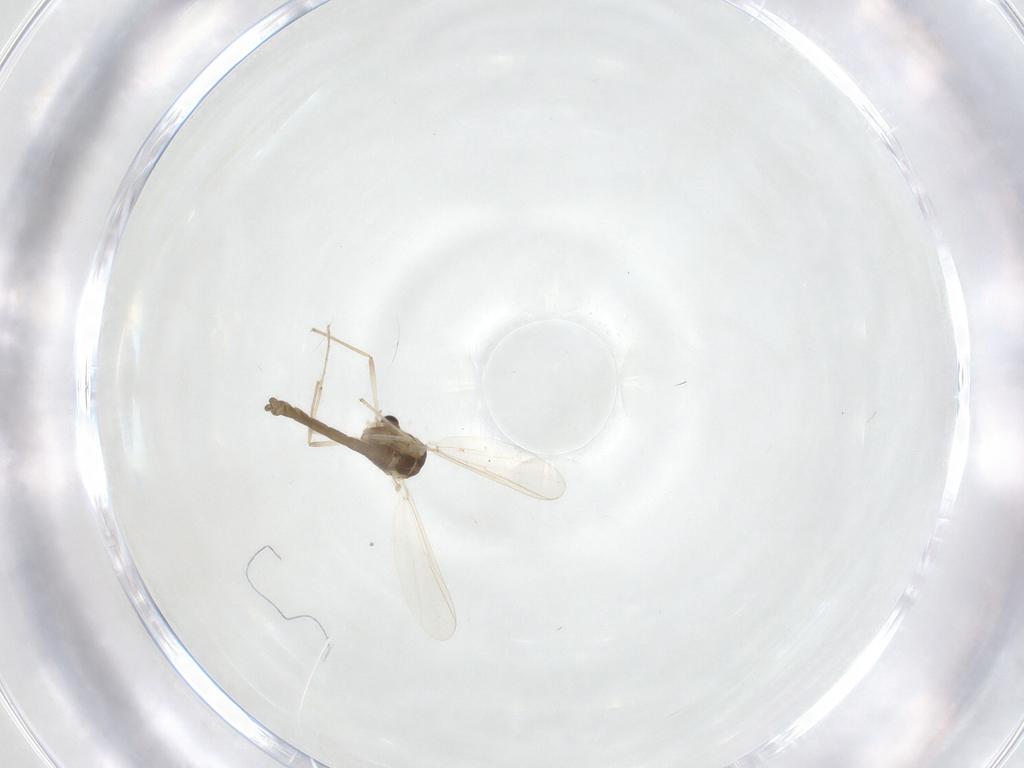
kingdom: Animalia
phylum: Arthropoda
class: Insecta
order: Diptera
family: Chironomidae
